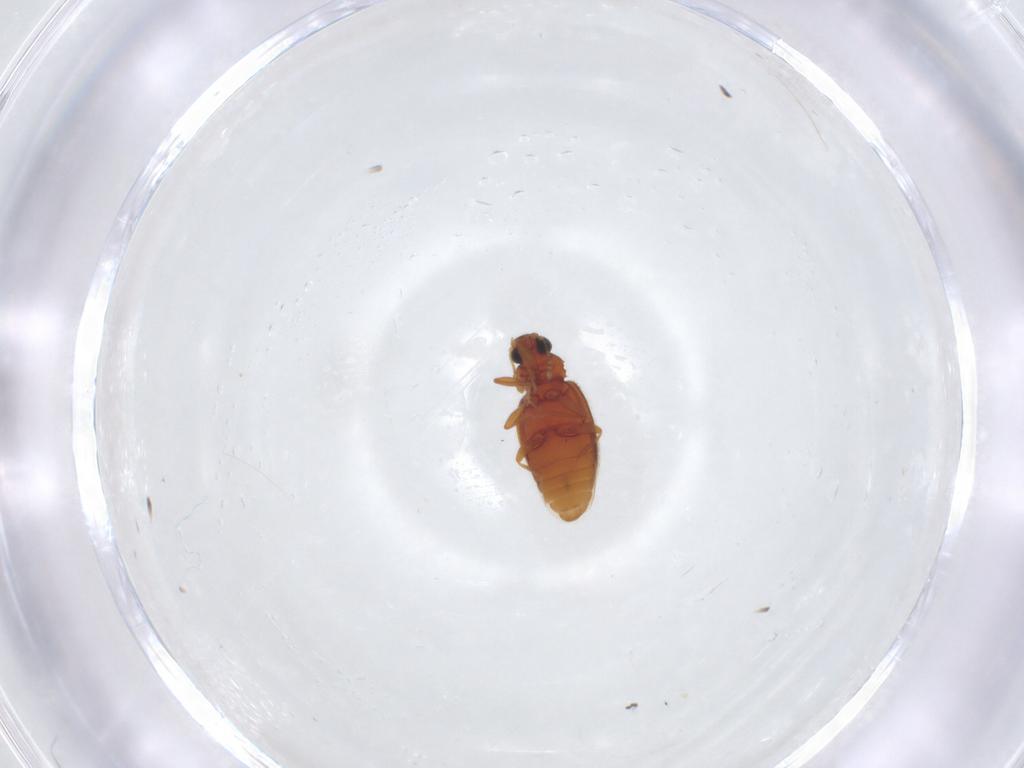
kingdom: Animalia
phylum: Arthropoda
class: Insecta
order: Coleoptera
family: Latridiidae
